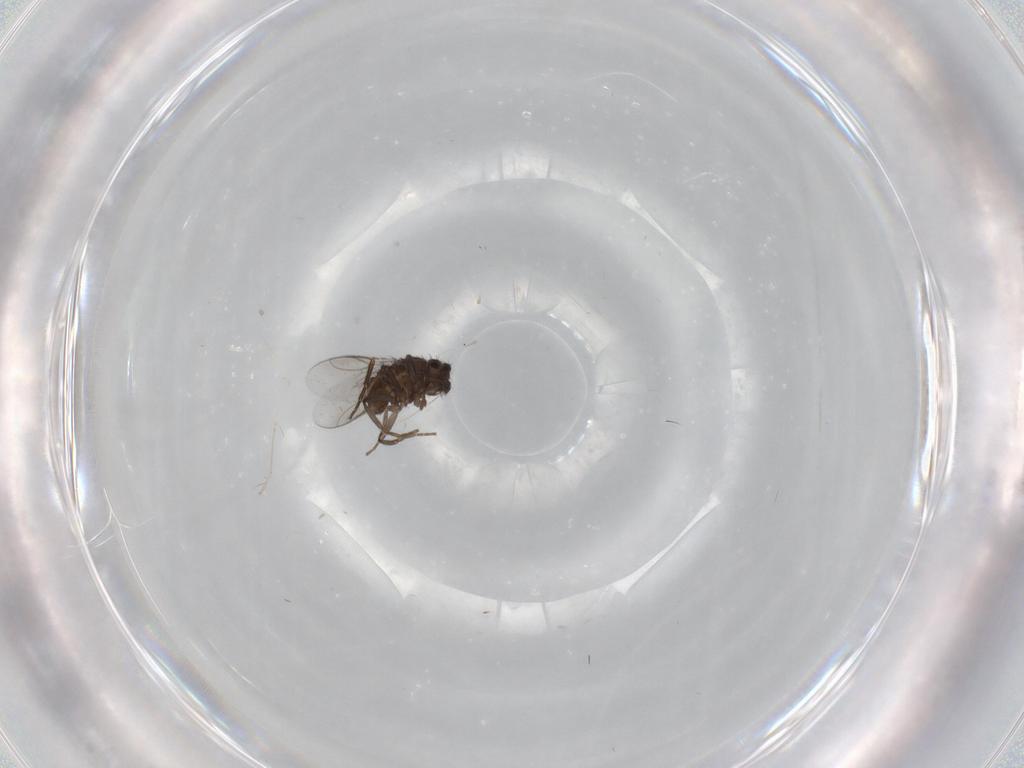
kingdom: Animalia
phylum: Arthropoda
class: Insecta
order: Diptera
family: Cecidomyiidae
